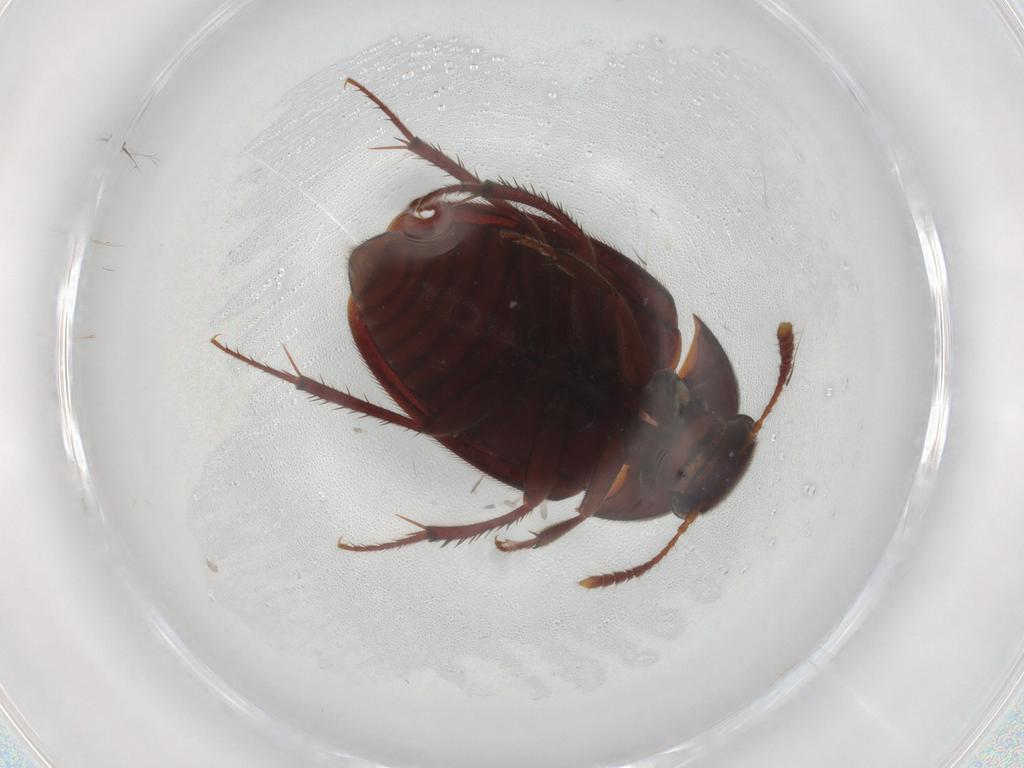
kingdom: Animalia
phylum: Arthropoda
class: Insecta
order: Coleoptera
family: Curculionidae
